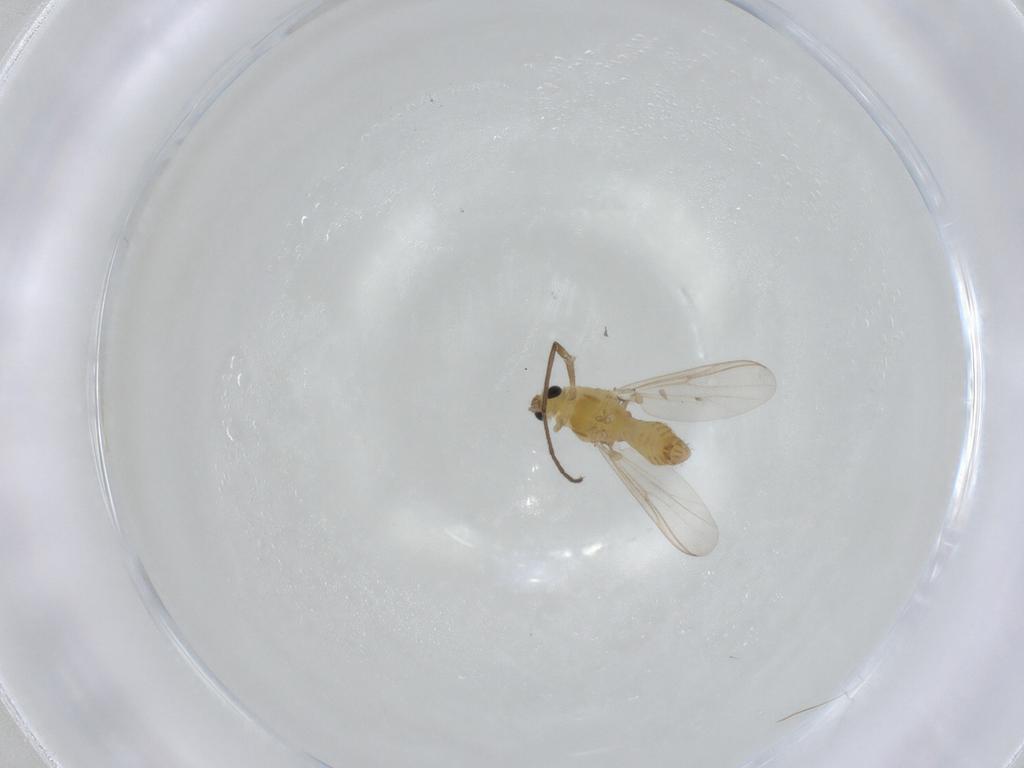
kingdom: Animalia
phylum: Arthropoda
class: Insecta
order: Diptera
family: Chironomidae
